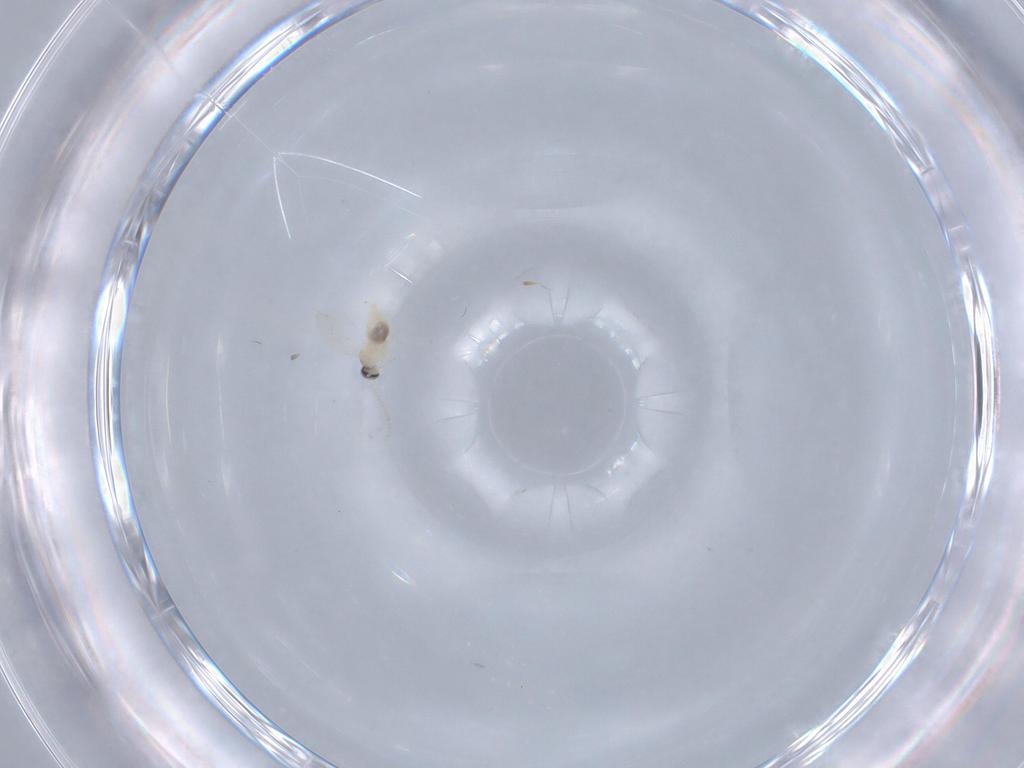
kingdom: Animalia
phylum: Arthropoda
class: Insecta
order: Diptera
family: Cecidomyiidae
